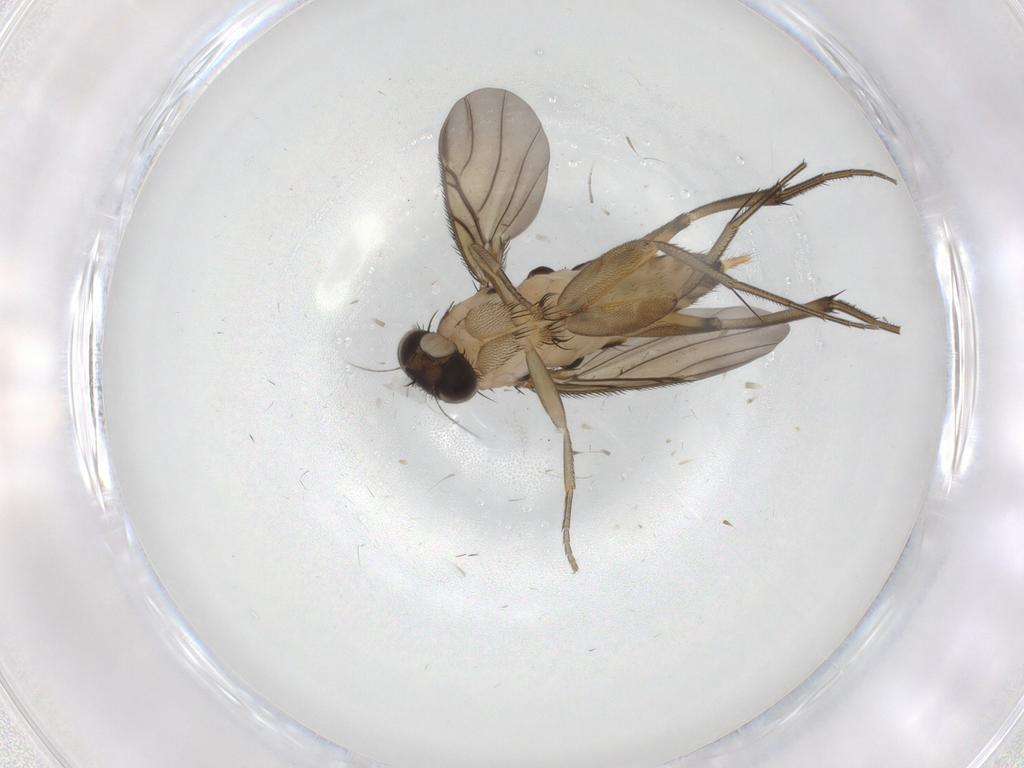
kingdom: Animalia
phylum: Arthropoda
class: Insecta
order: Diptera
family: Phoridae
